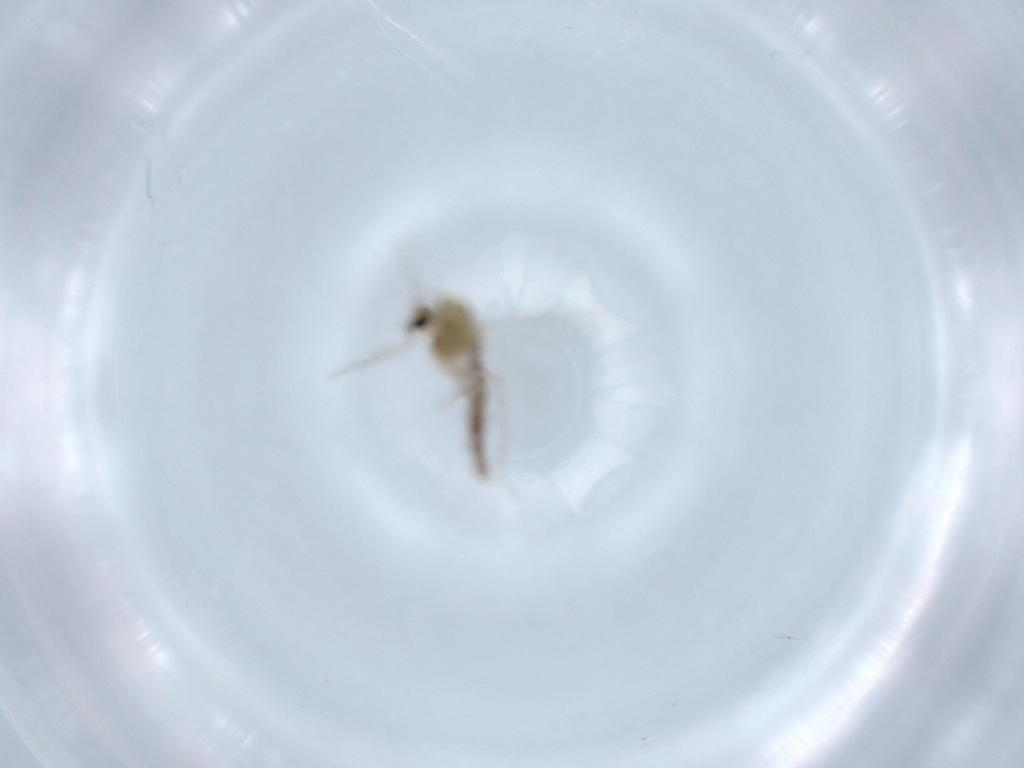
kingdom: Animalia
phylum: Arthropoda
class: Insecta
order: Diptera
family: Chironomidae
